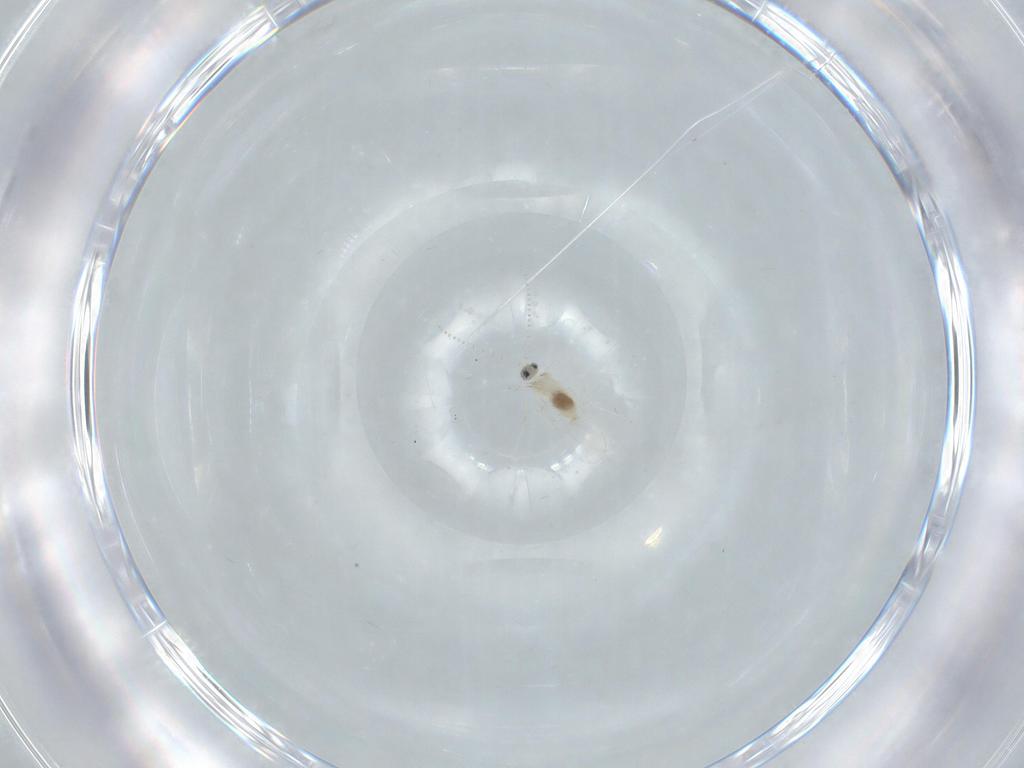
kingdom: Animalia
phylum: Arthropoda
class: Insecta
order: Diptera
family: Cecidomyiidae
